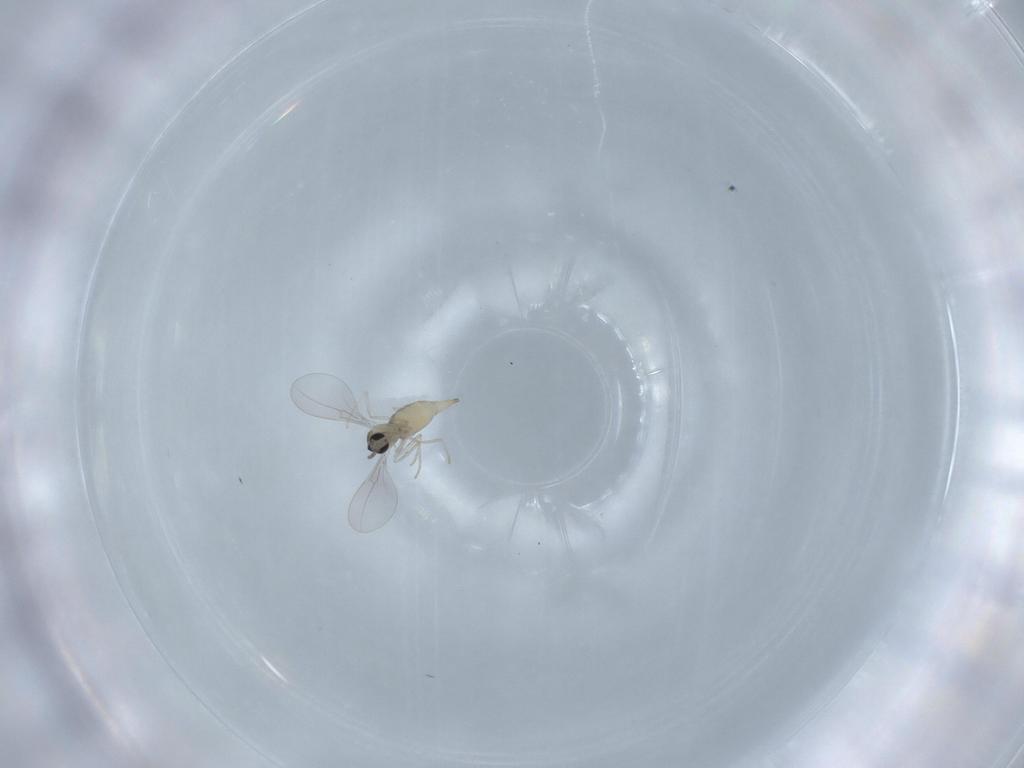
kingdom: Animalia
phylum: Arthropoda
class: Insecta
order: Diptera
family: Cecidomyiidae
